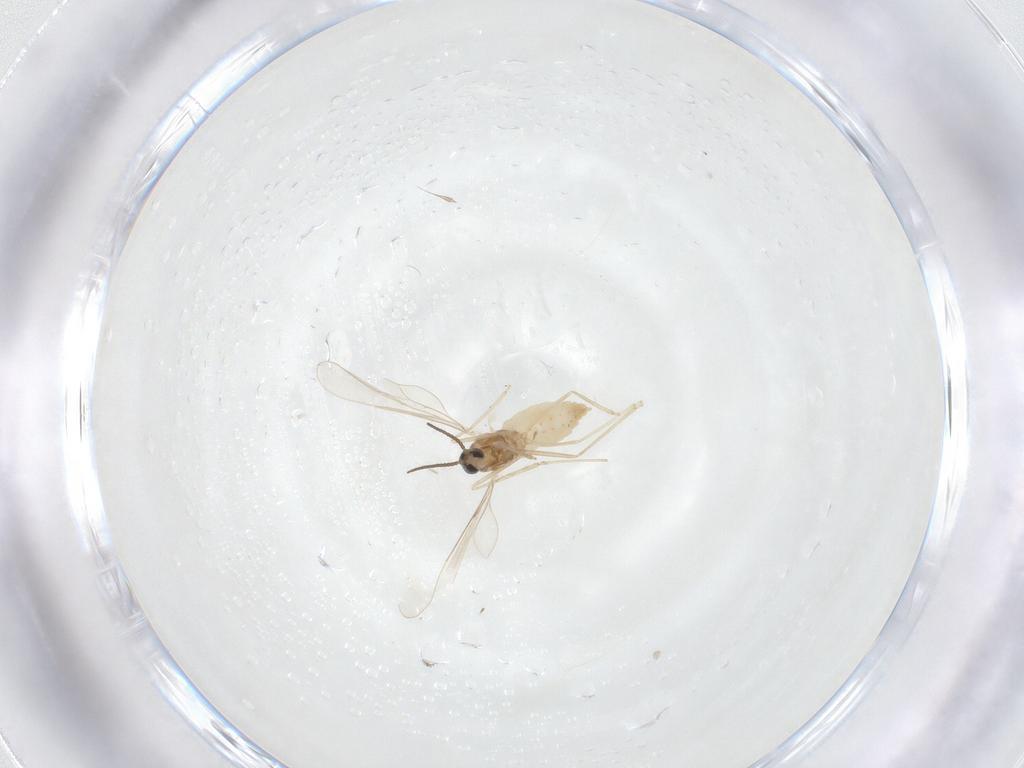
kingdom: Animalia
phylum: Arthropoda
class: Insecta
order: Diptera
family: Cecidomyiidae
